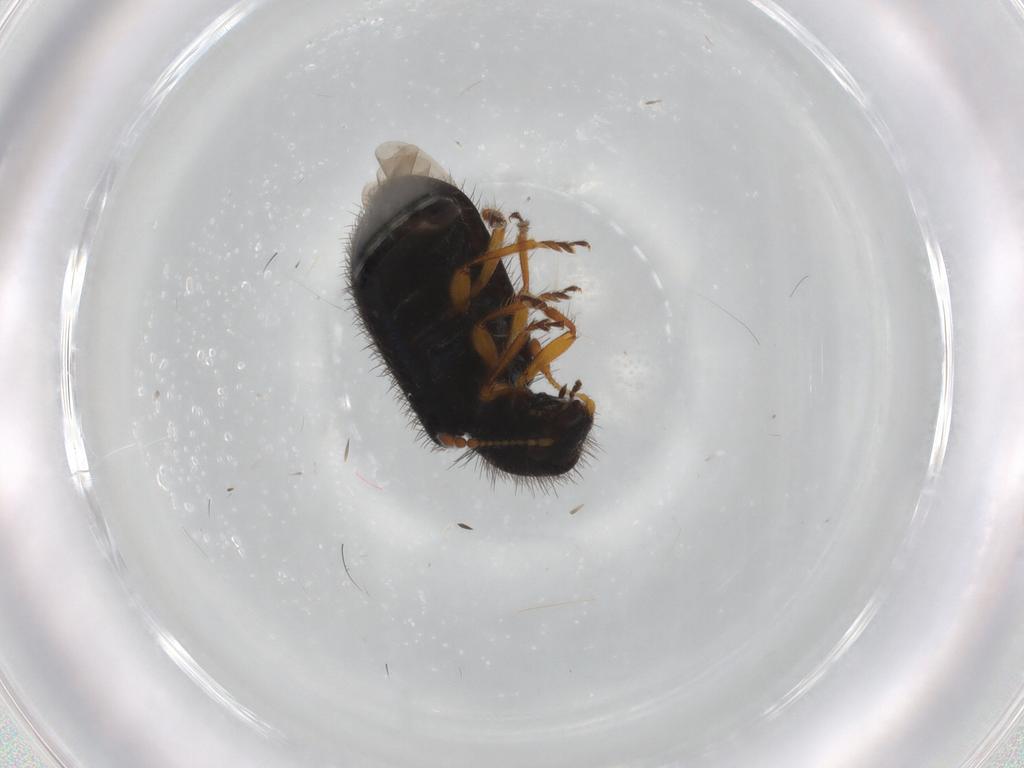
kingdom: Animalia
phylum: Arthropoda
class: Insecta
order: Coleoptera
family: Cleridae
